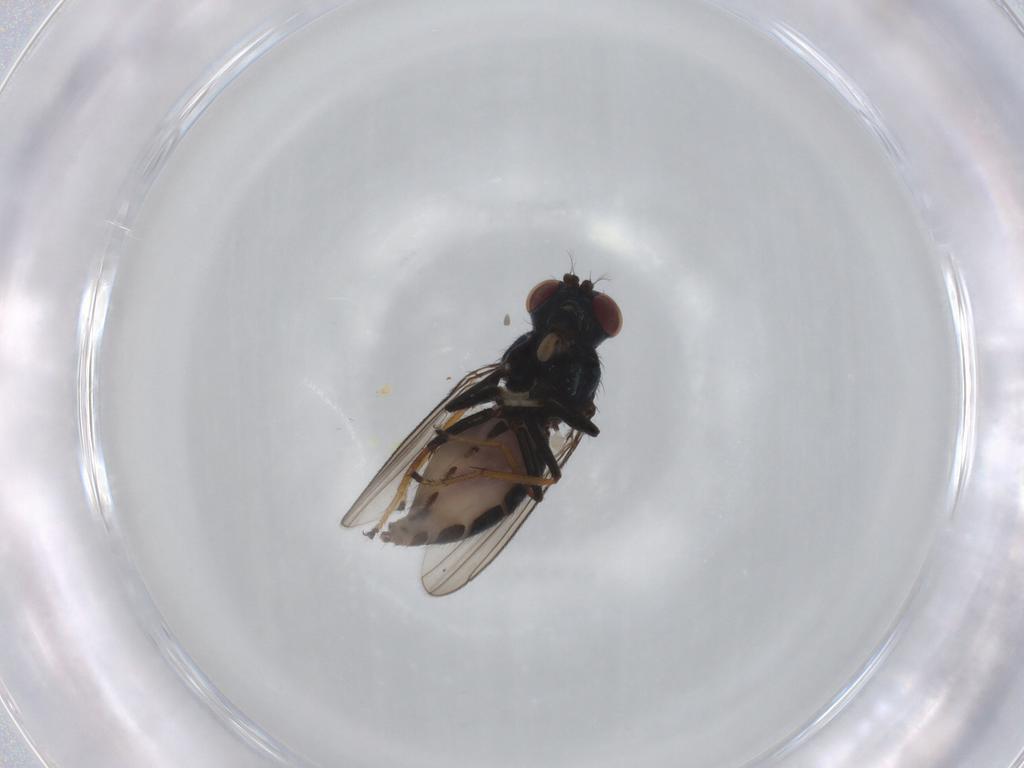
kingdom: Animalia
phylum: Arthropoda
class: Insecta
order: Diptera
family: Ephydridae
